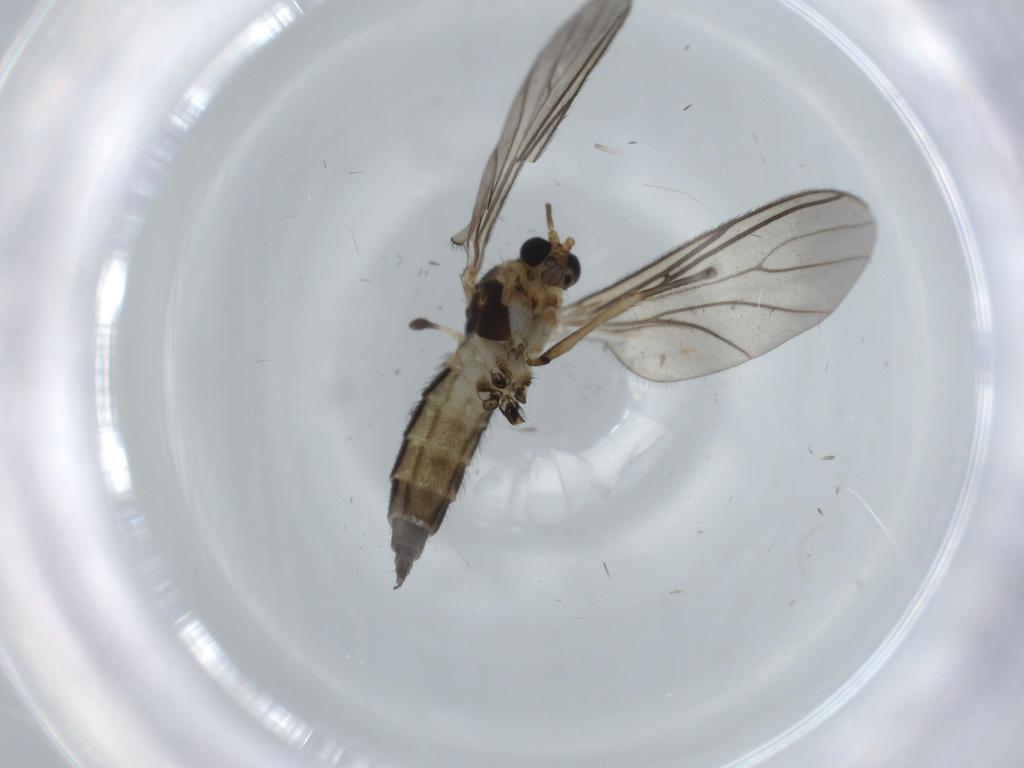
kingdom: Animalia
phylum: Arthropoda
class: Insecta
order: Diptera
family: Sciaridae
